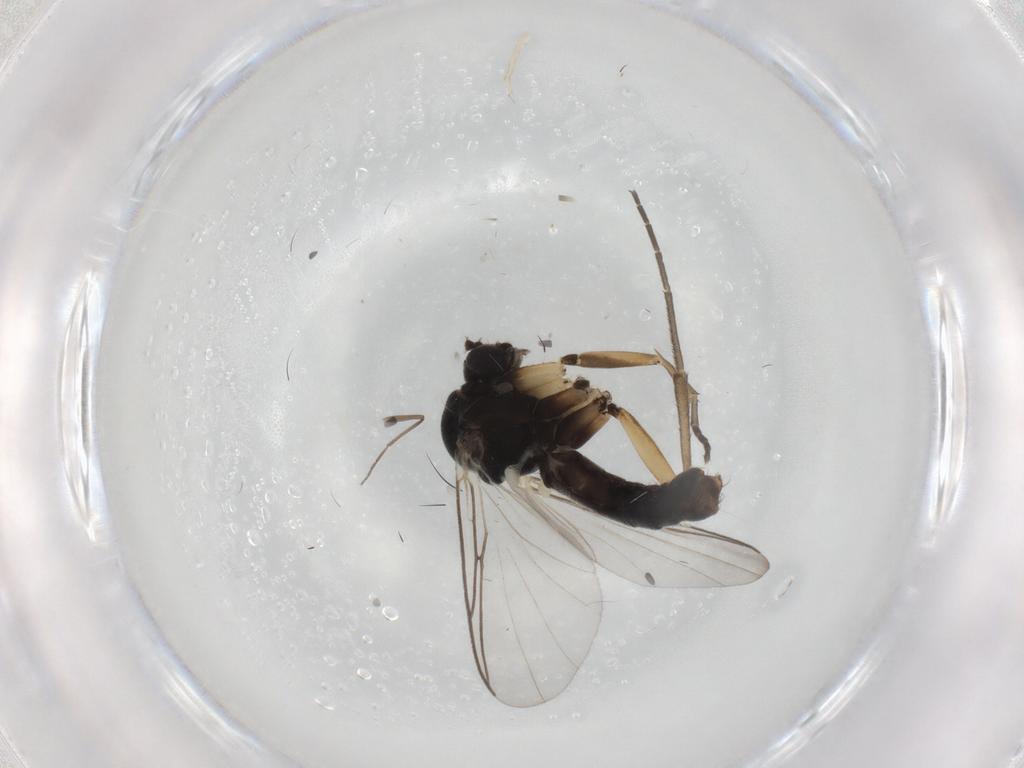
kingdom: Animalia
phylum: Arthropoda
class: Insecta
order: Diptera
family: Mycetophilidae
